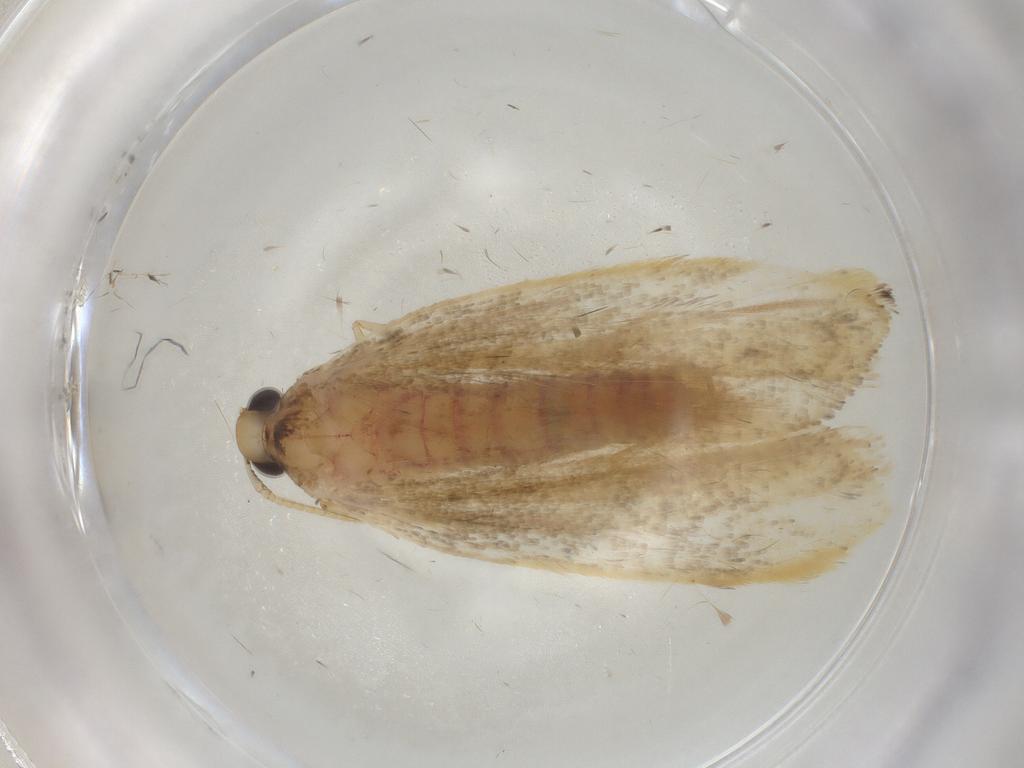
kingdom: Animalia
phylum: Arthropoda
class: Insecta
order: Lepidoptera
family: Lecithoceridae
